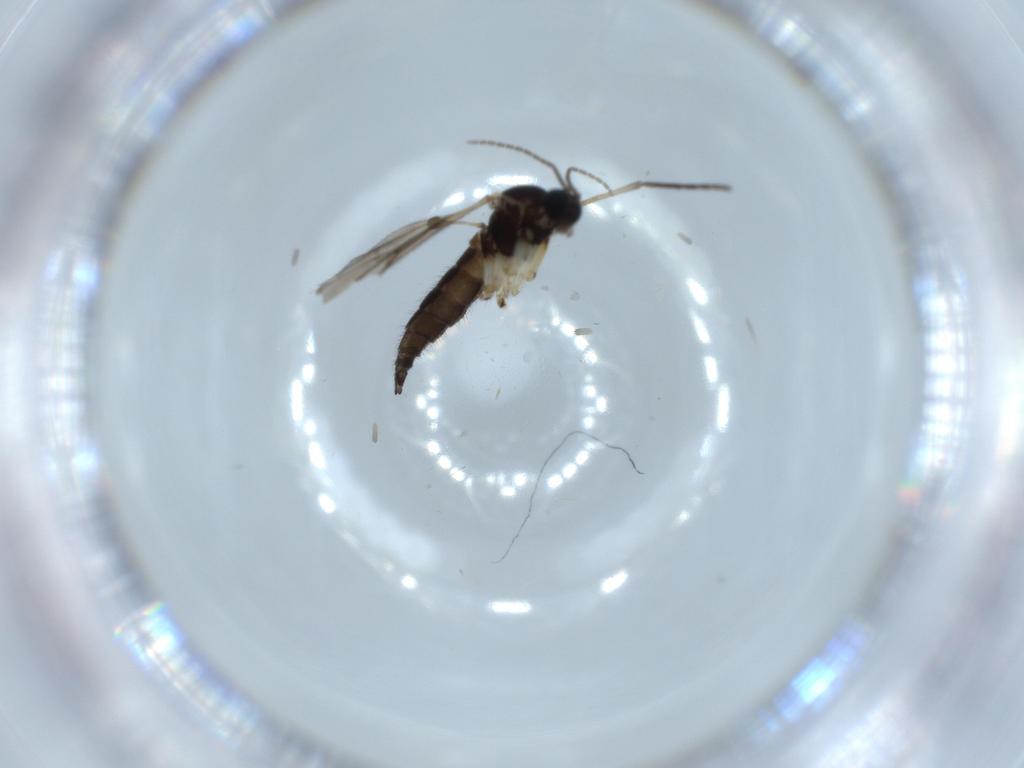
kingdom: Animalia
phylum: Arthropoda
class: Insecta
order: Diptera
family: Sciaridae
